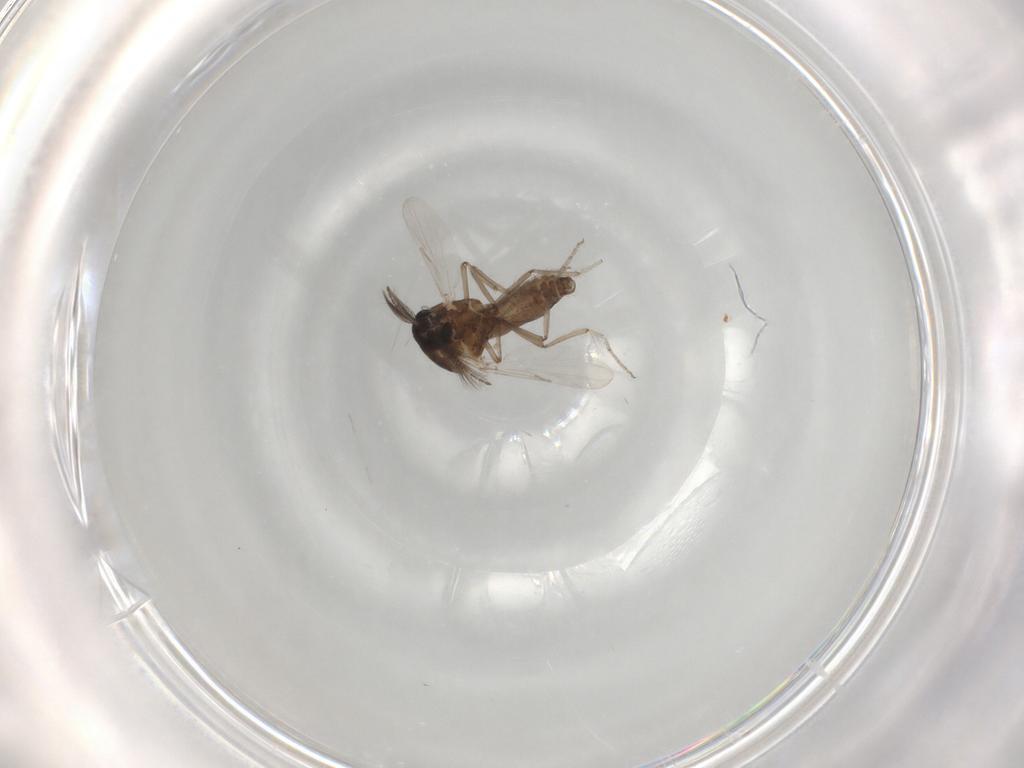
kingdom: Animalia
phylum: Arthropoda
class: Insecta
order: Diptera
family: Ceratopogonidae
